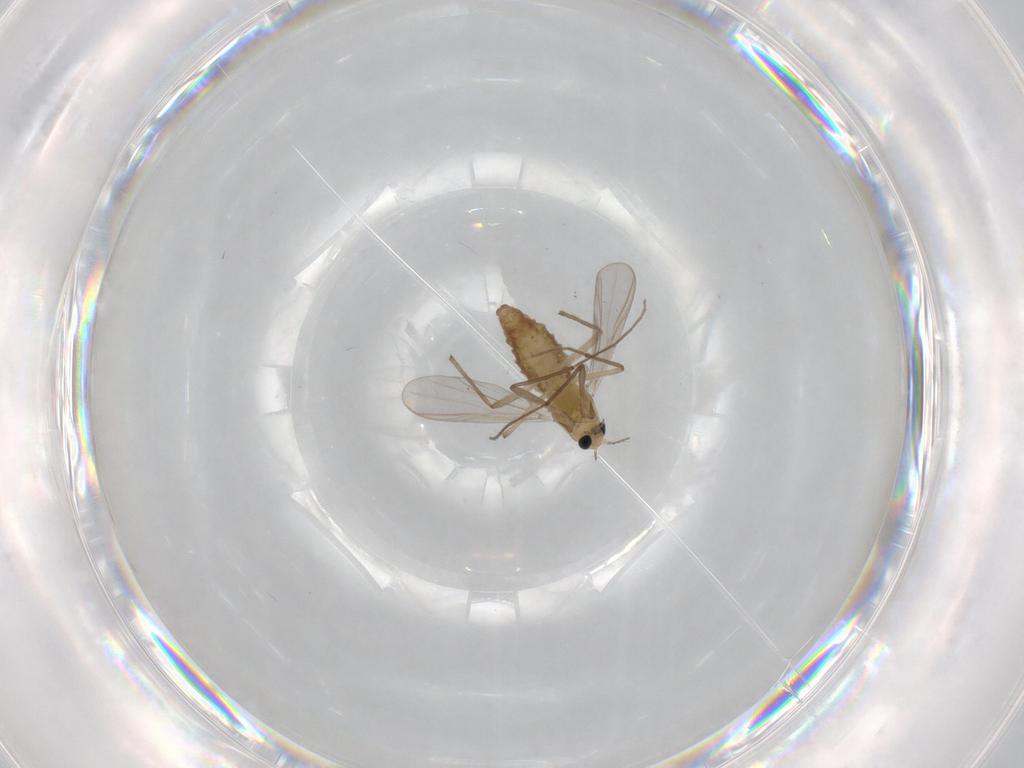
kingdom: Animalia
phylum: Arthropoda
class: Insecta
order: Diptera
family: Chironomidae
